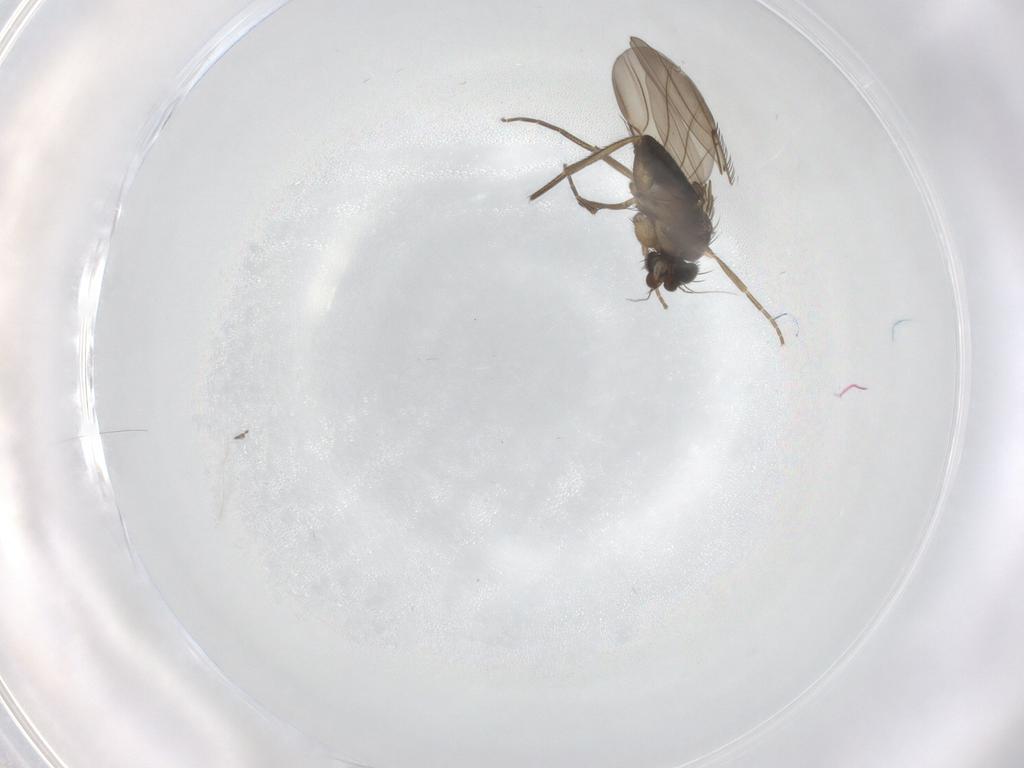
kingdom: Animalia
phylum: Arthropoda
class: Insecta
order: Diptera
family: Phoridae
